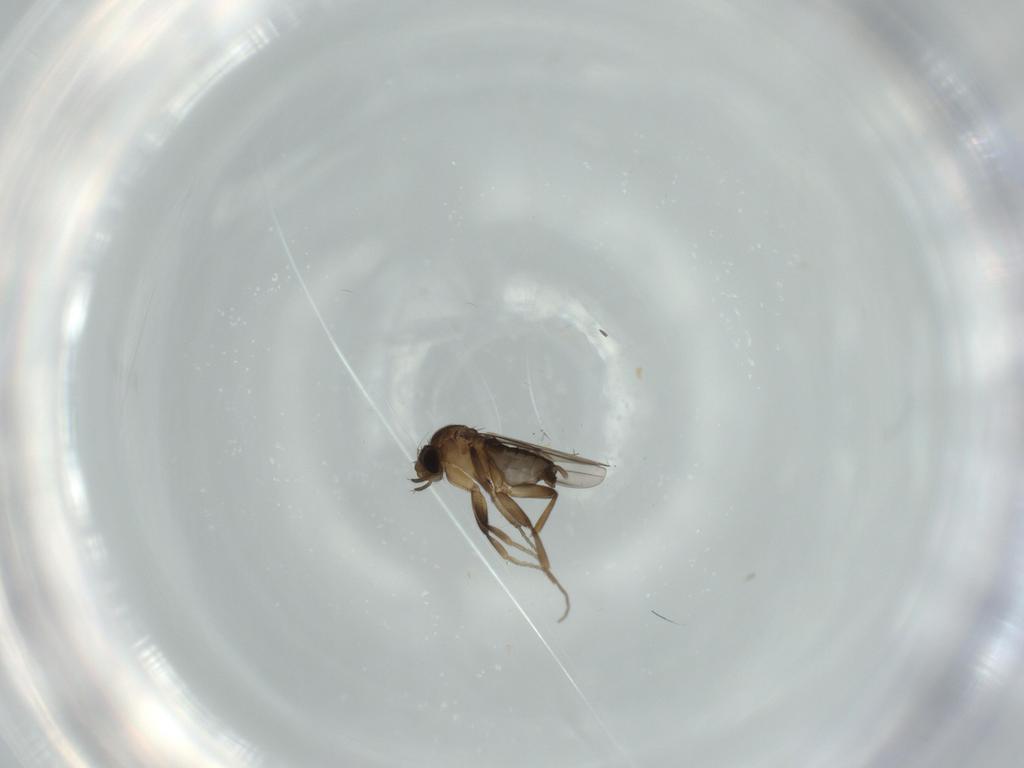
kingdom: Animalia
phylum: Arthropoda
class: Insecta
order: Diptera
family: Phoridae
